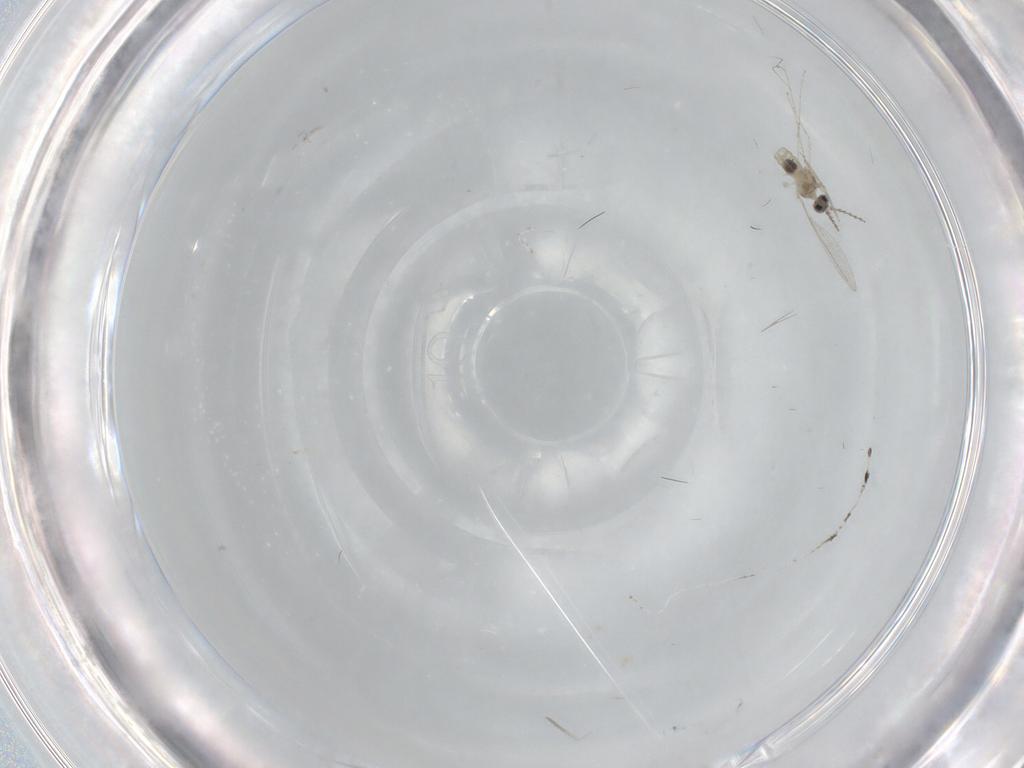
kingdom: Animalia
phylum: Arthropoda
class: Insecta
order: Diptera
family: Cecidomyiidae
